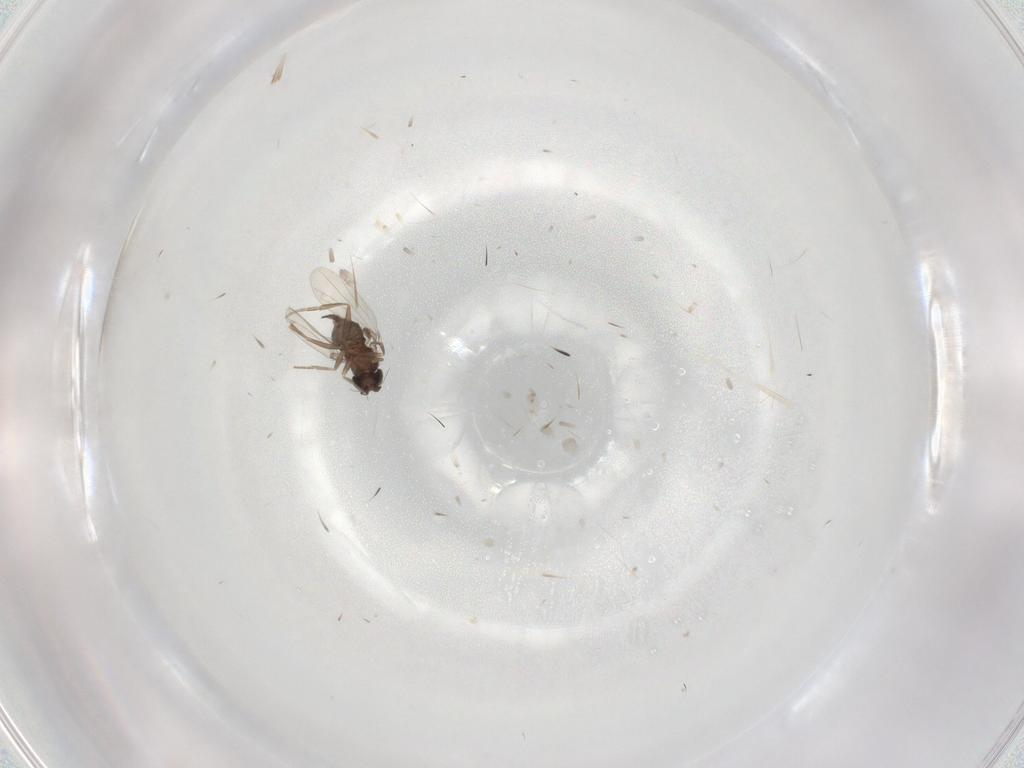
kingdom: Animalia
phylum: Arthropoda
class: Insecta
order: Diptera
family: Phoridae
